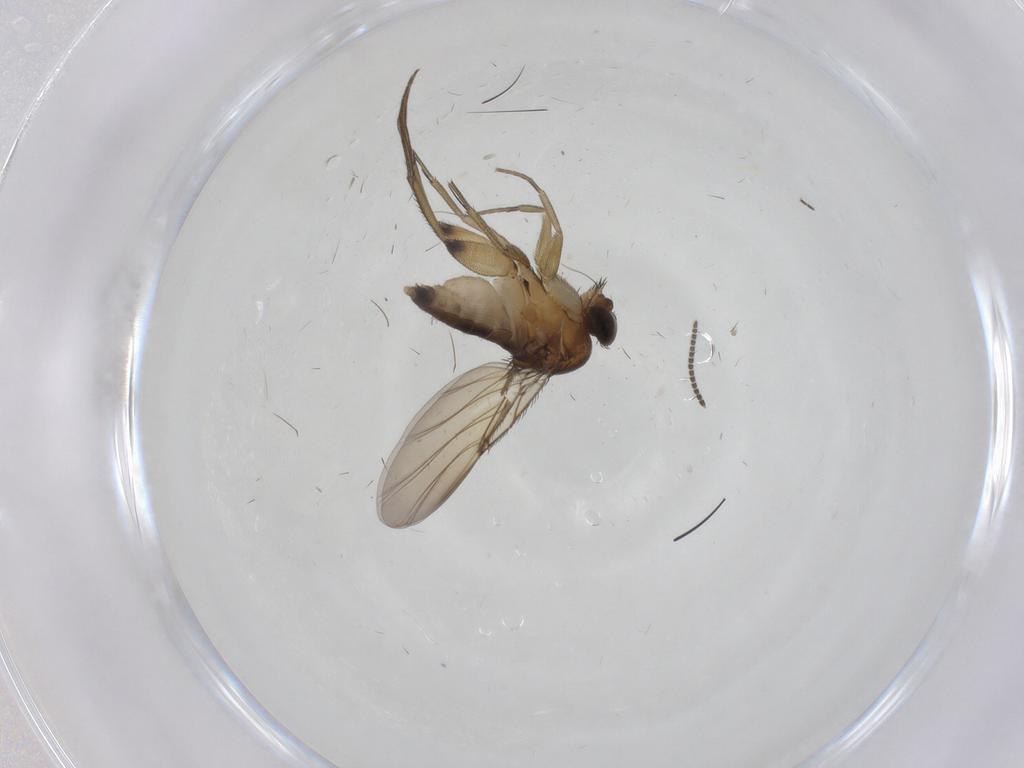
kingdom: Animalia
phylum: Arthropoda
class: Insecta
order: Diptera
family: Phoridae
